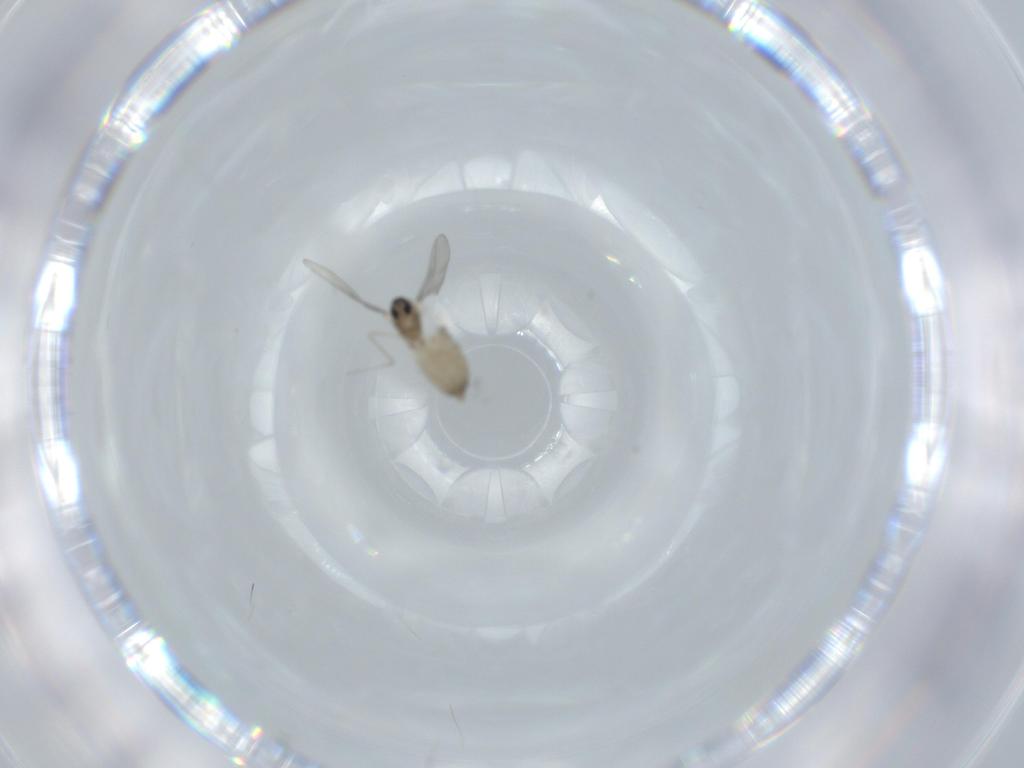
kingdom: Animalia
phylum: Arthropoda
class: Insecta
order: Diptera
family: Cecidomyiidae
